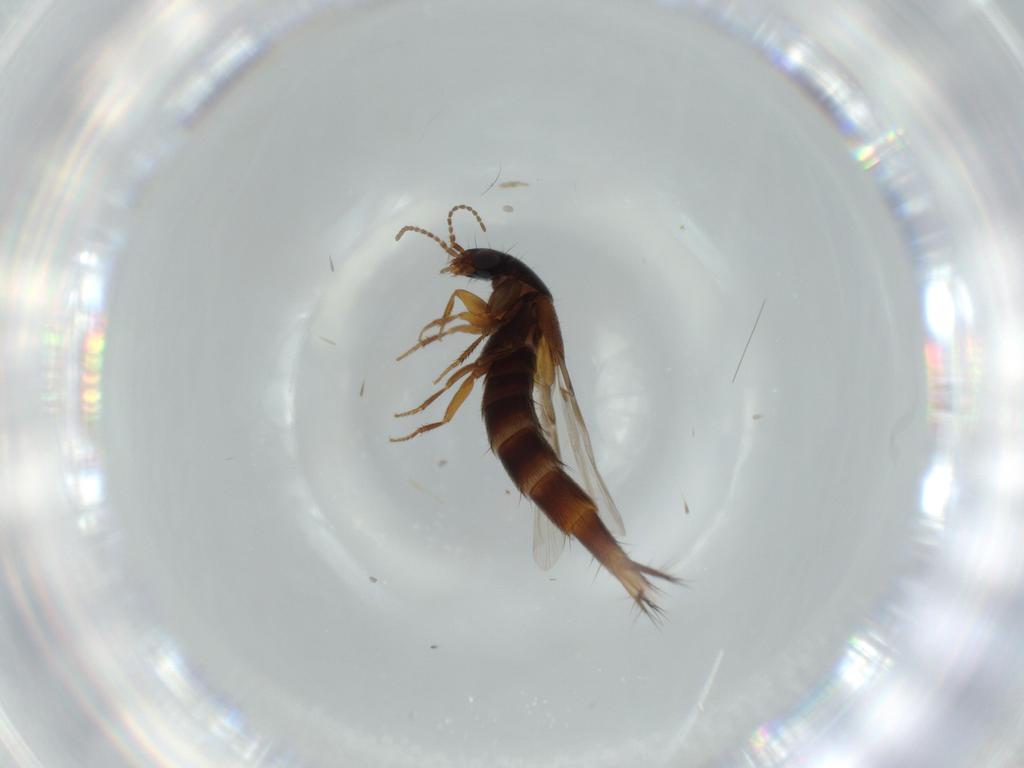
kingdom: Animalia
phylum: Arthropoda
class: Insecta
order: Coleoptera
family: Staphylinidae
